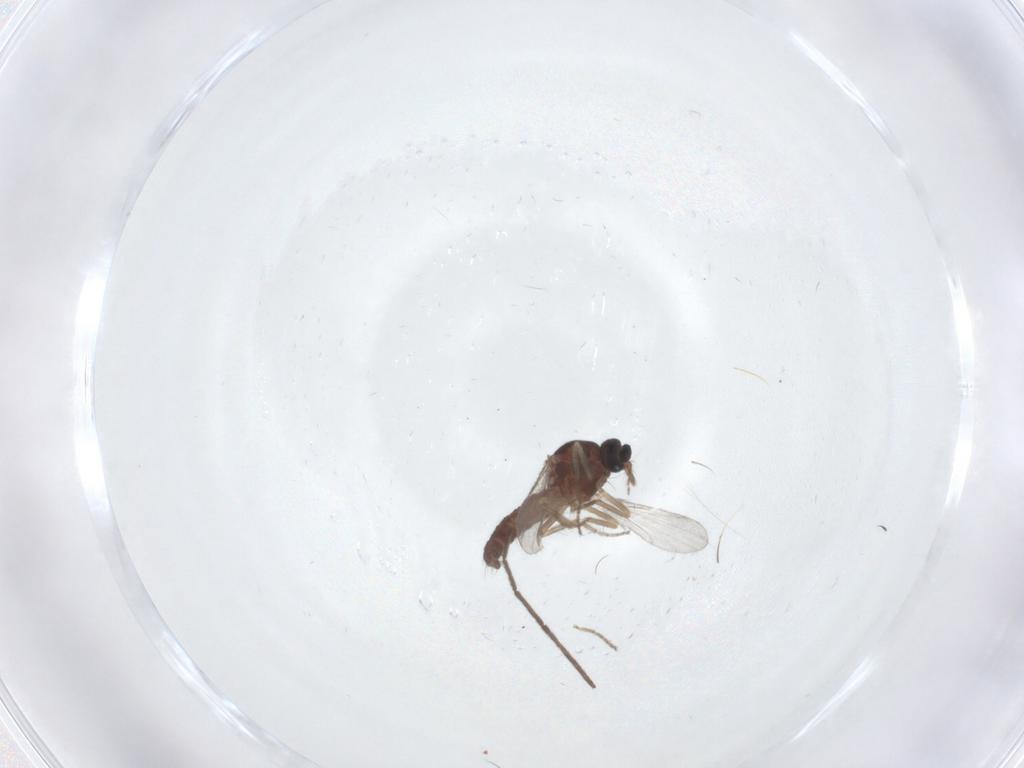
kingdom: Animalia
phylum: Arthropoda
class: Insecta
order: Diptera
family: Chironomidae
